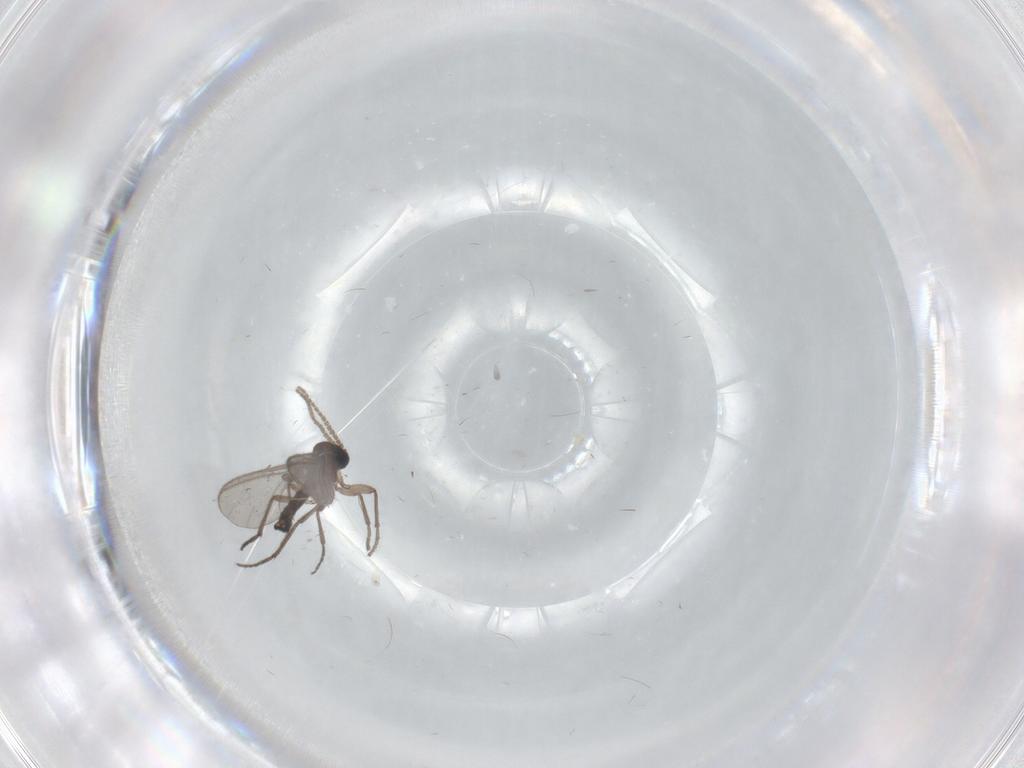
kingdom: Animalia
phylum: Arthropoda
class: Insecta
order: Diptera
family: Sciaridae
